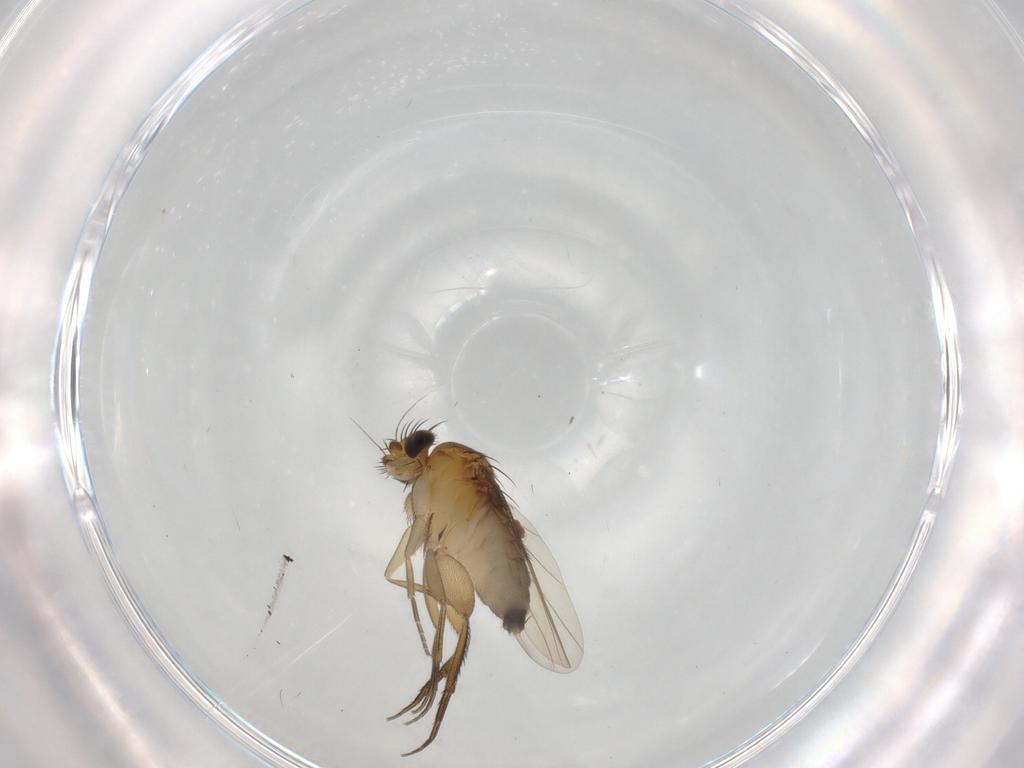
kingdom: Animalia
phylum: Arthropoda
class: Insecta
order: Diptera
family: Phoridae
